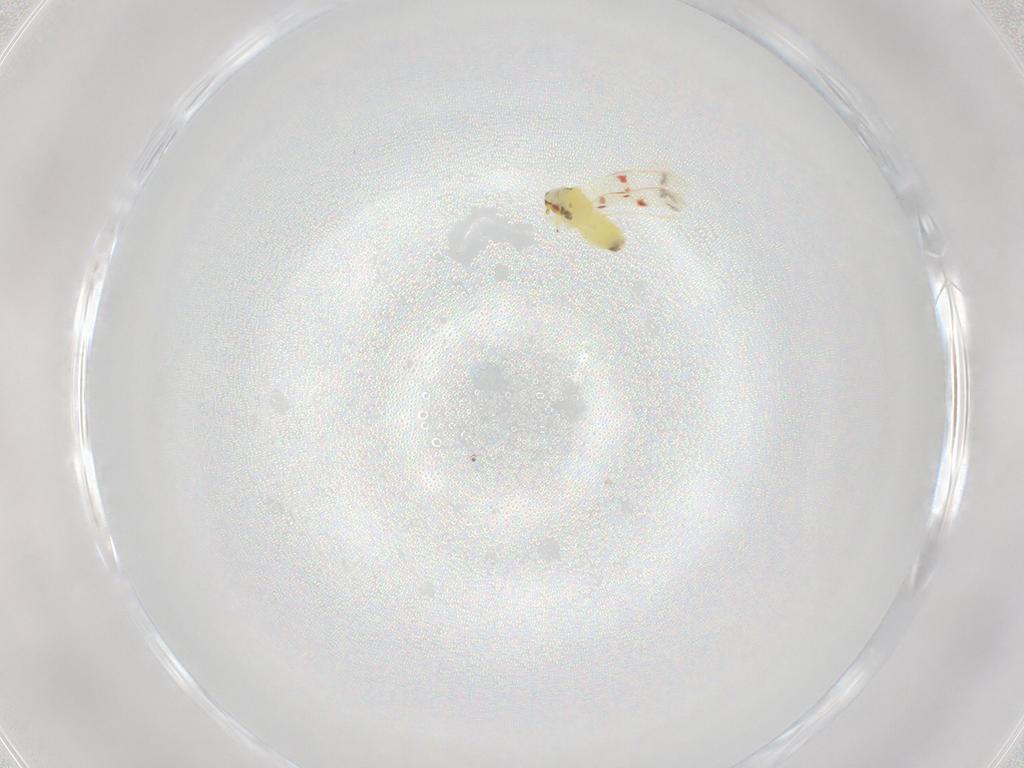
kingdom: Animalia
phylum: Arthropoda
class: Insecta
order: Hemiptera
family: Aleyrodidae
